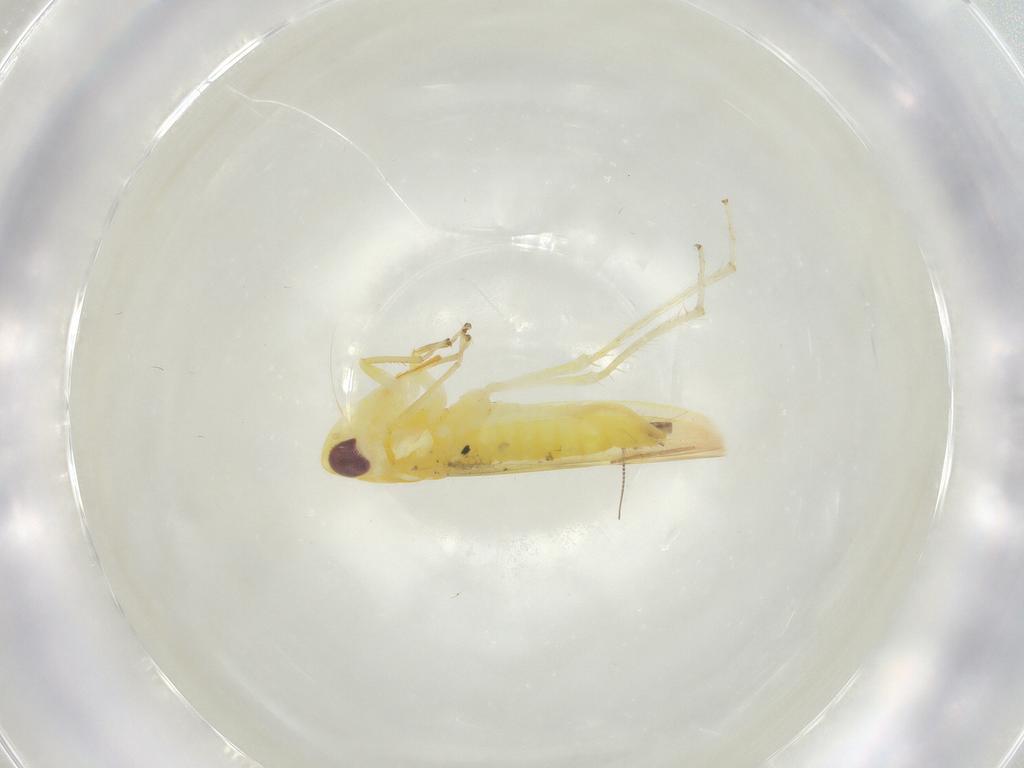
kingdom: Animalia
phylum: Arthropoda
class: Insecta
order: Hemiptera
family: Cicadellidae
